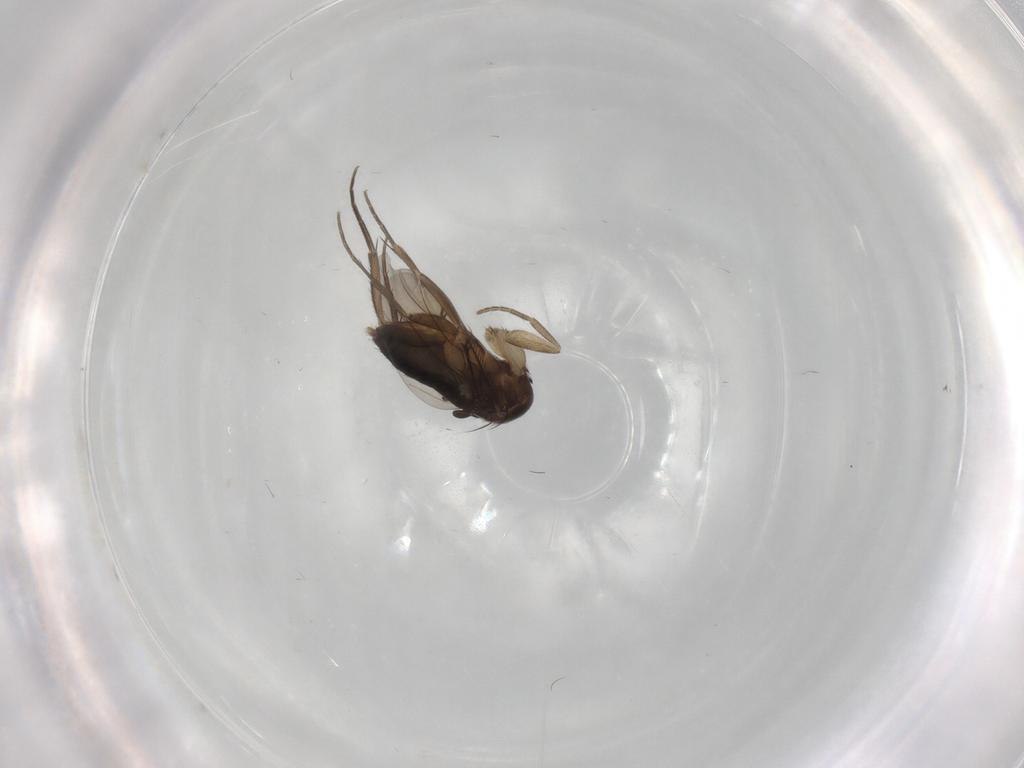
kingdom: Animalia
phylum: Arthropoda
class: Insecta
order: Diptera
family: Phoridae
